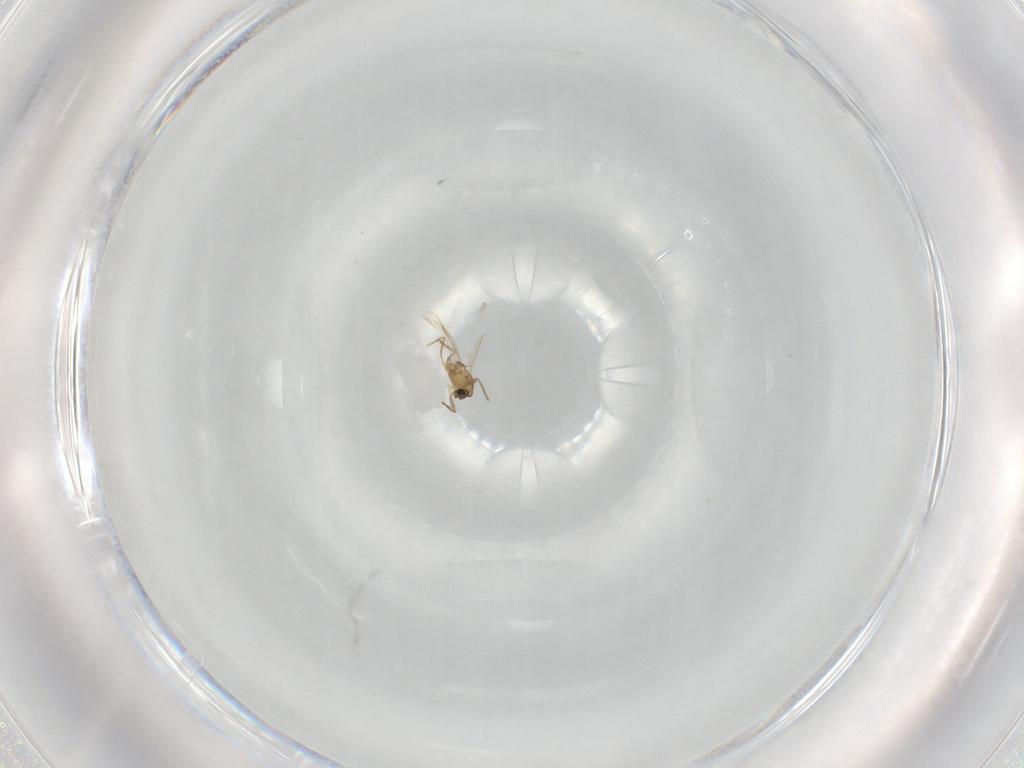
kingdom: Animalia
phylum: Arthropoda
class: Insecta
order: Diptera
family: Chironomidae
